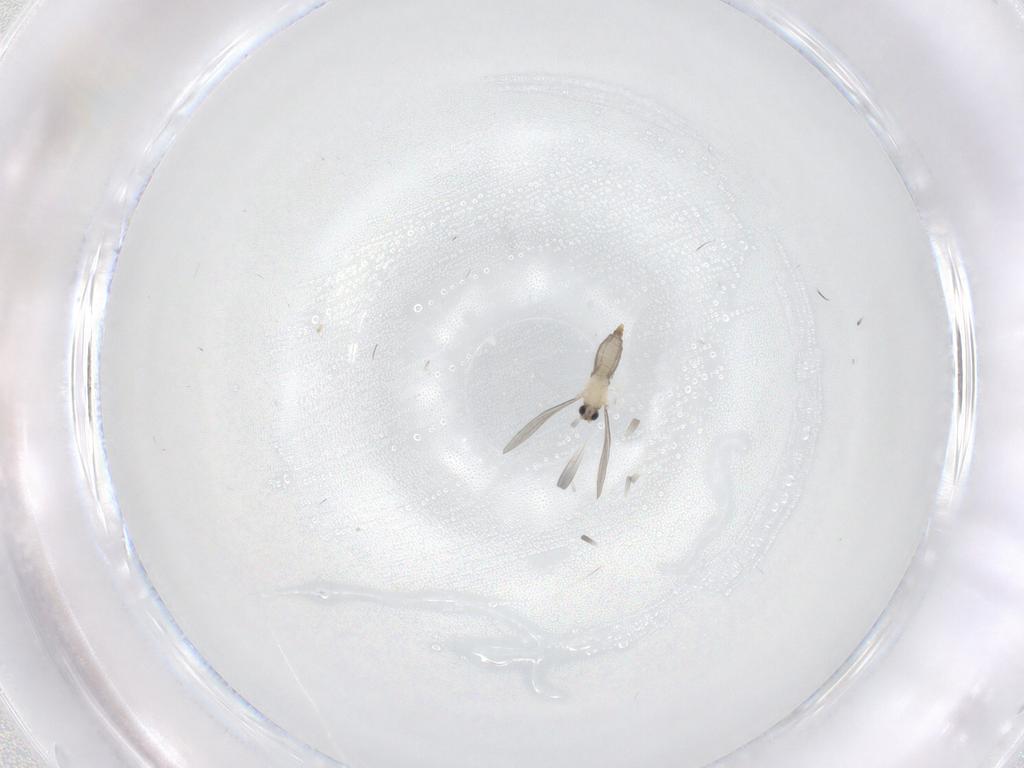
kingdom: Animalia
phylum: Arthropoda
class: Insecta
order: Diptera
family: Cecidomyiidae
